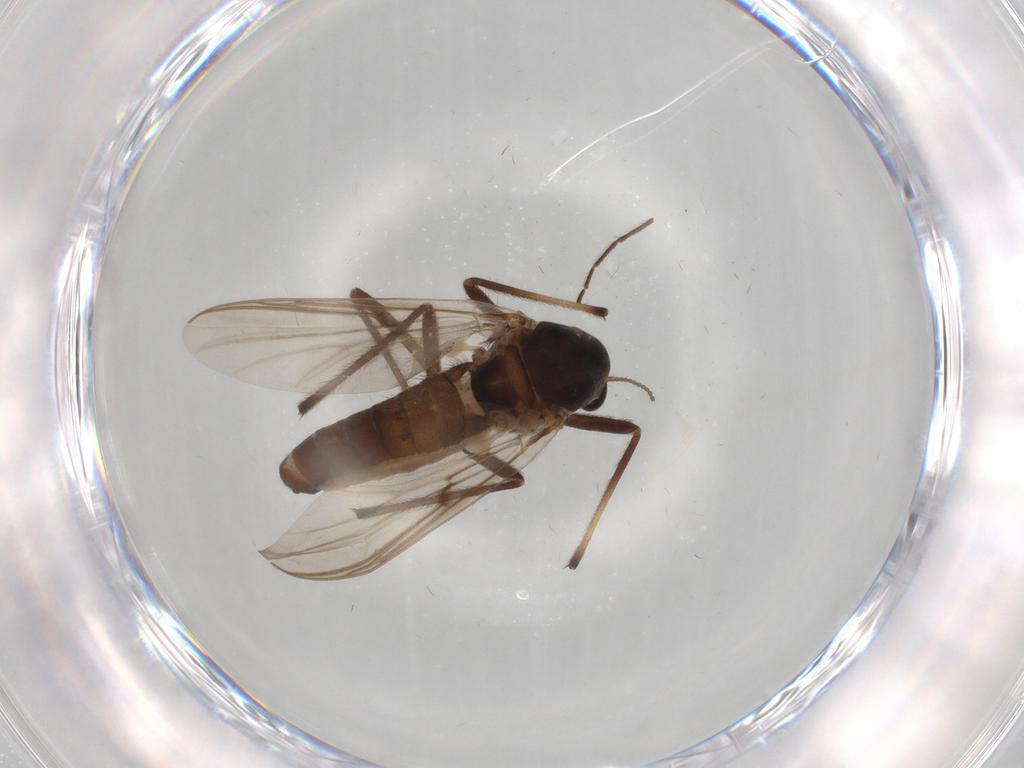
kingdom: Animalia
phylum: Arthropoda
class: Insecta
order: Diptera
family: Chironomidae
